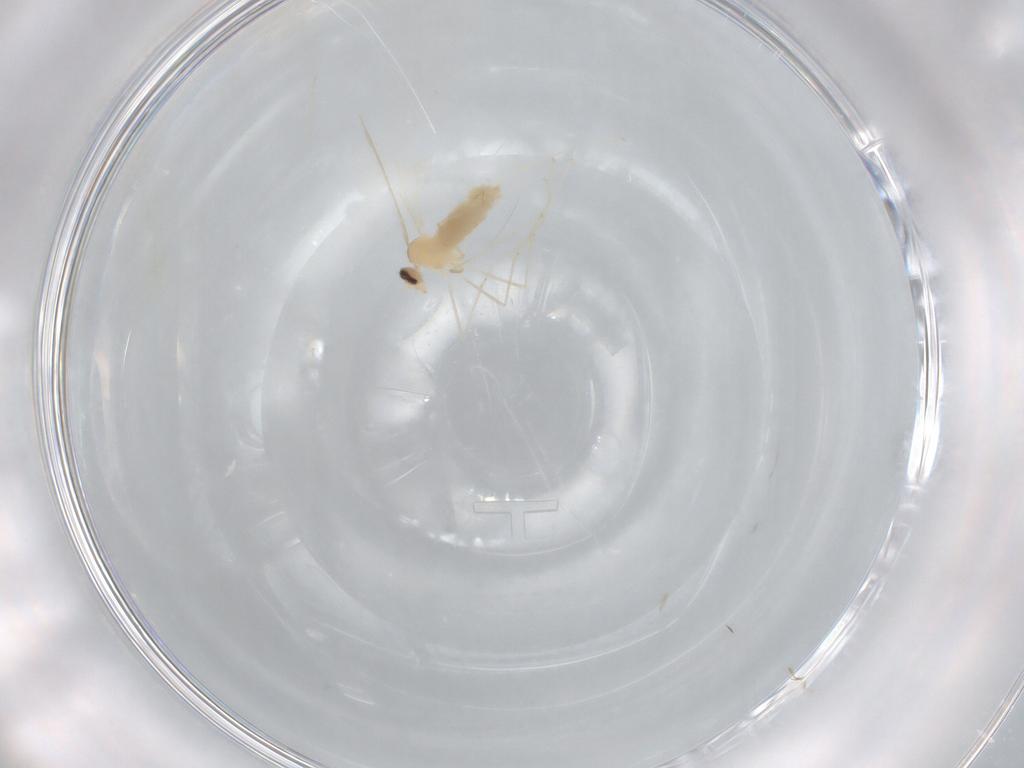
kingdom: Animalia
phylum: Arthropoda
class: Insecta
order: Diptera
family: Cecidomyiidae
